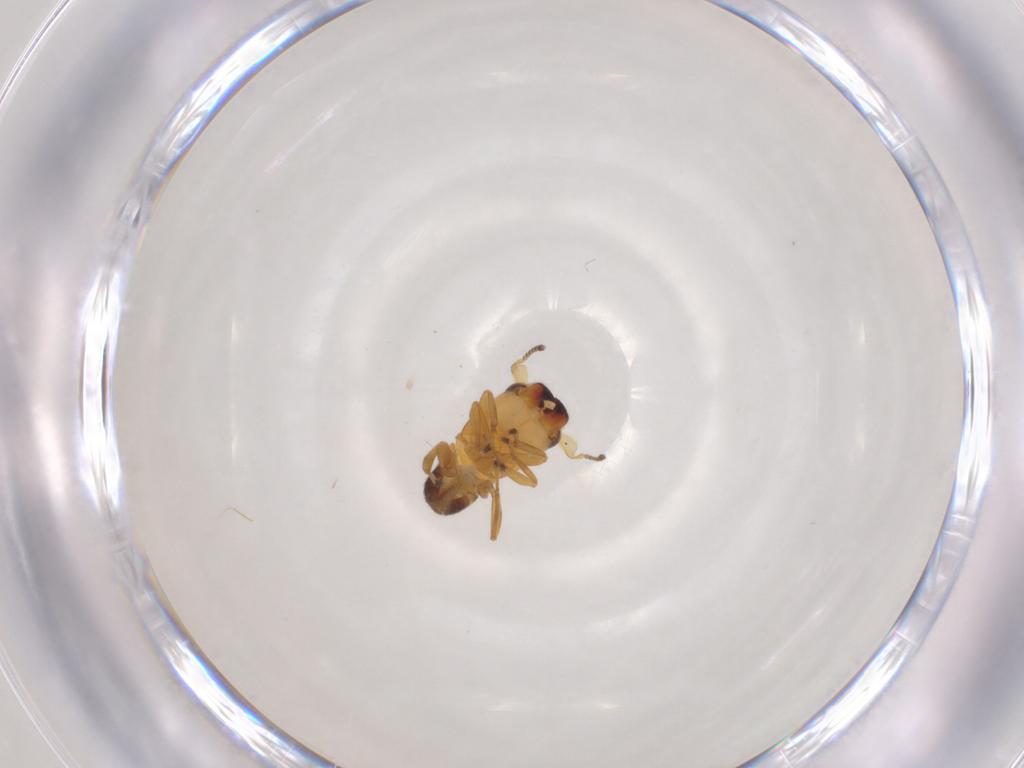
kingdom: Animalia
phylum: Arthropoda
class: Insecta
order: Hymenoptera
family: Pteromalidae
